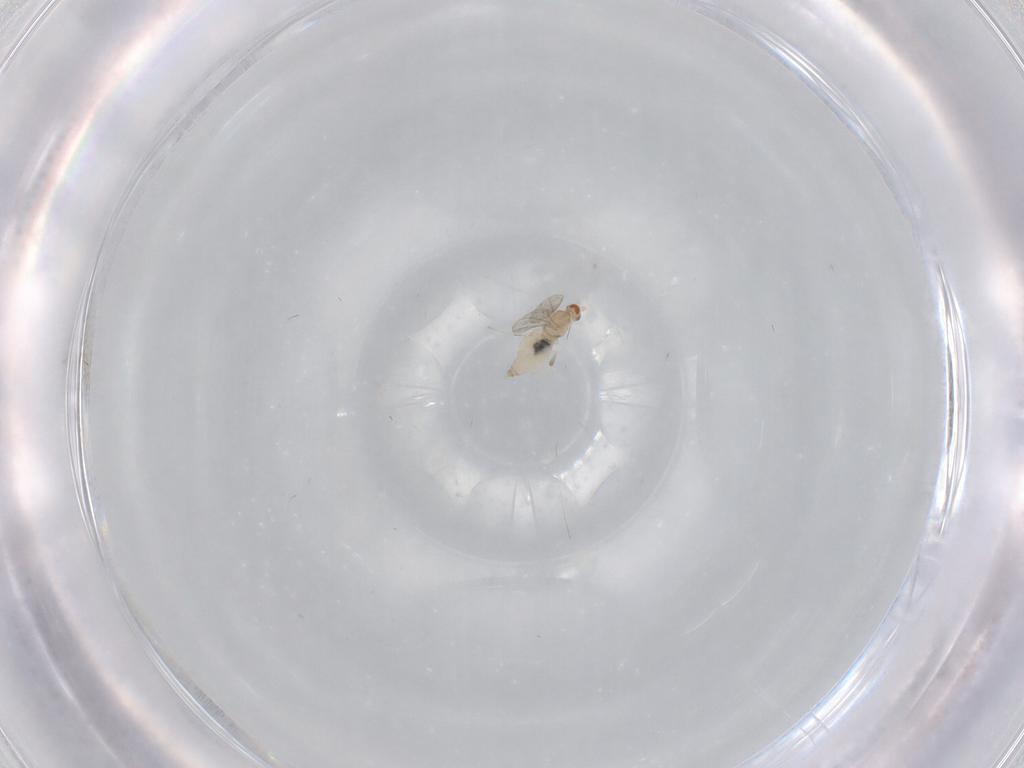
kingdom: Animalia
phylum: Arthropoda
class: Insecta
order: Diptera
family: Cecidomyiidae
